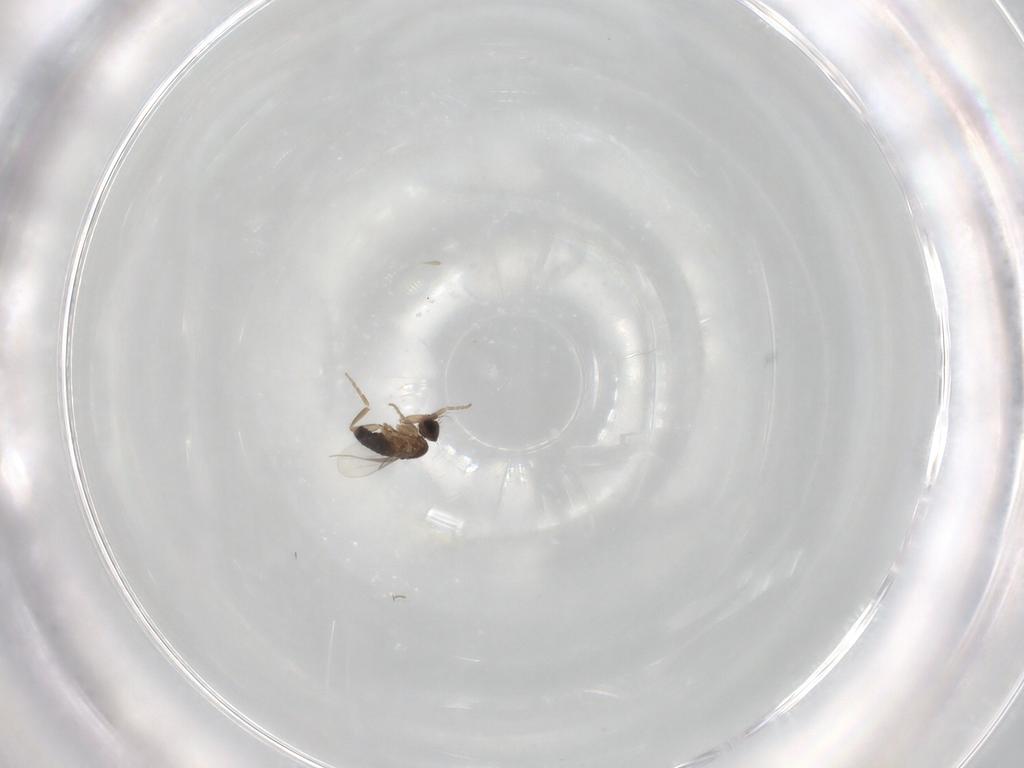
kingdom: Animalia
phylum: Arthropoda
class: Insecta
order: Diptera
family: Phoridae
